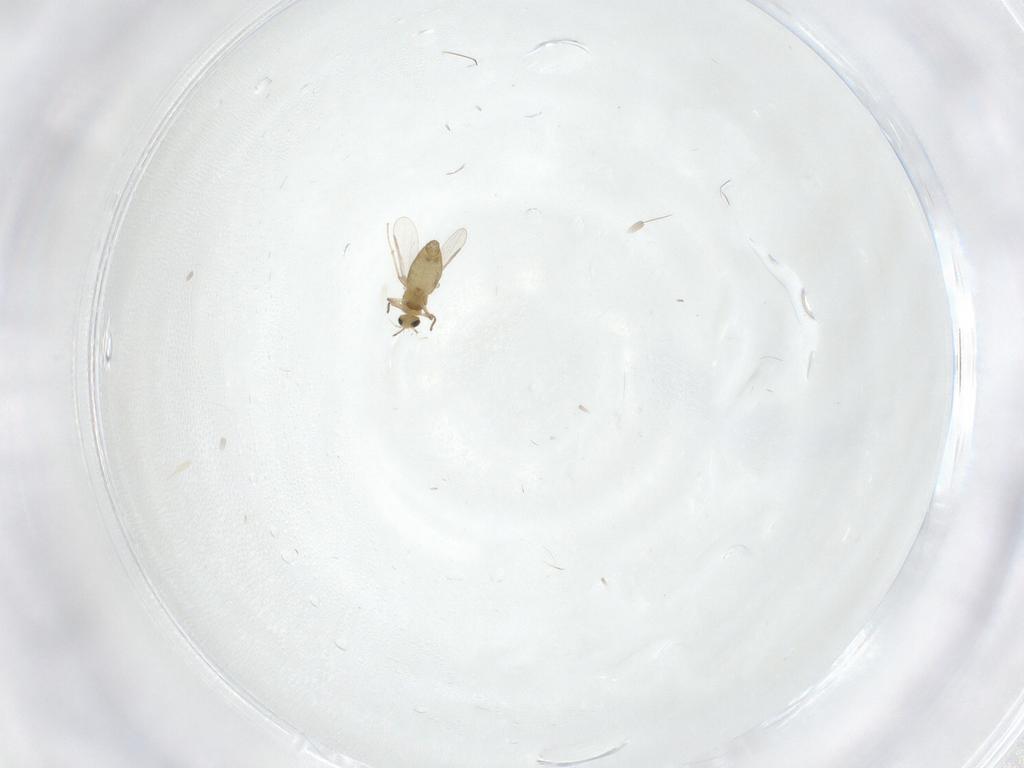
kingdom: Animalia
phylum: Arthropoda
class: Insecta
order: Diptera
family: Chironomidae
